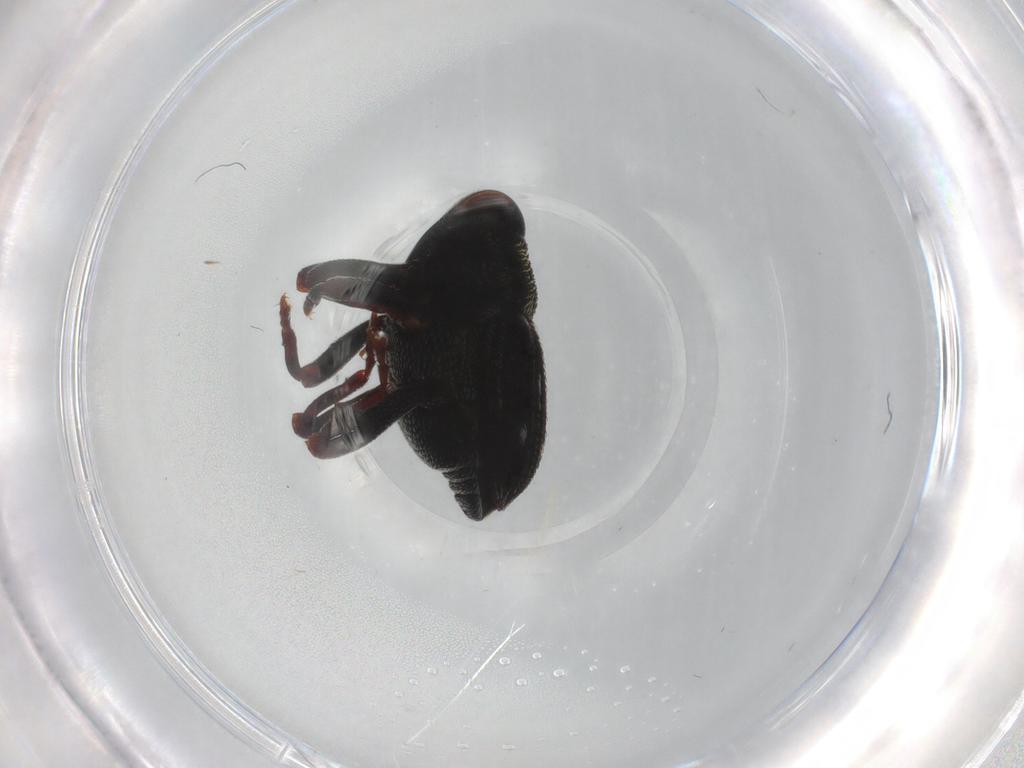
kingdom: Animalia
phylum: Arthropoda
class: Insecta
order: Coleoptera
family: Curculionidae
